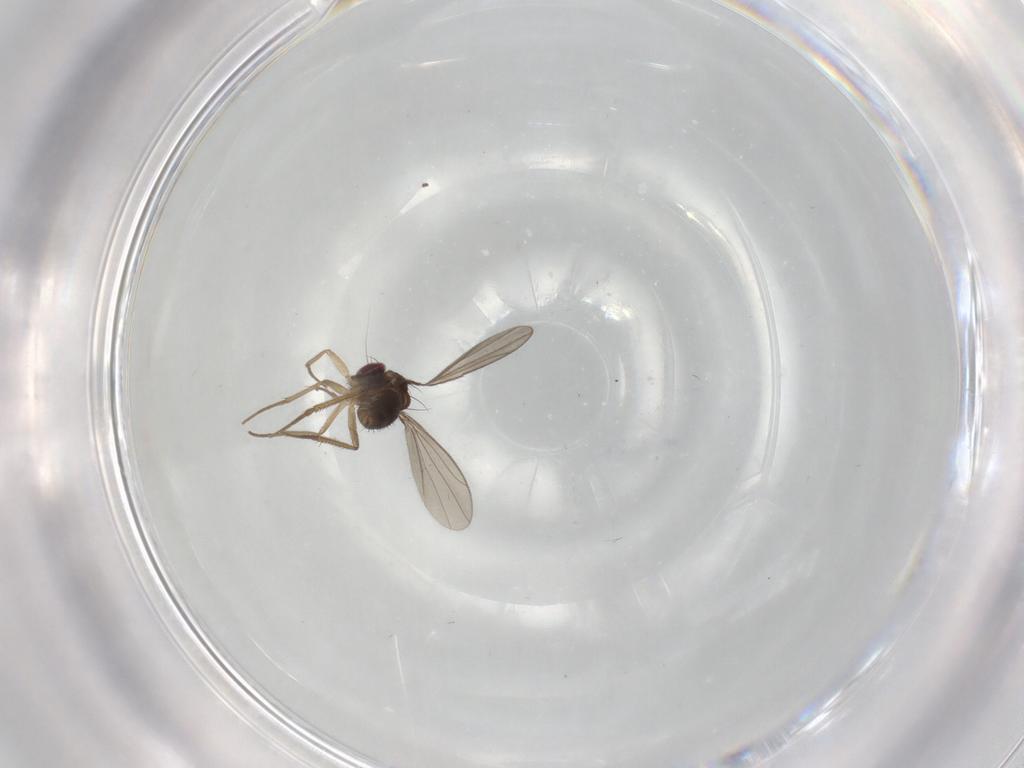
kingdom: Animalia
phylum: Arthropoda
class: Insecta
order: Diptera
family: Dolichopodidae
